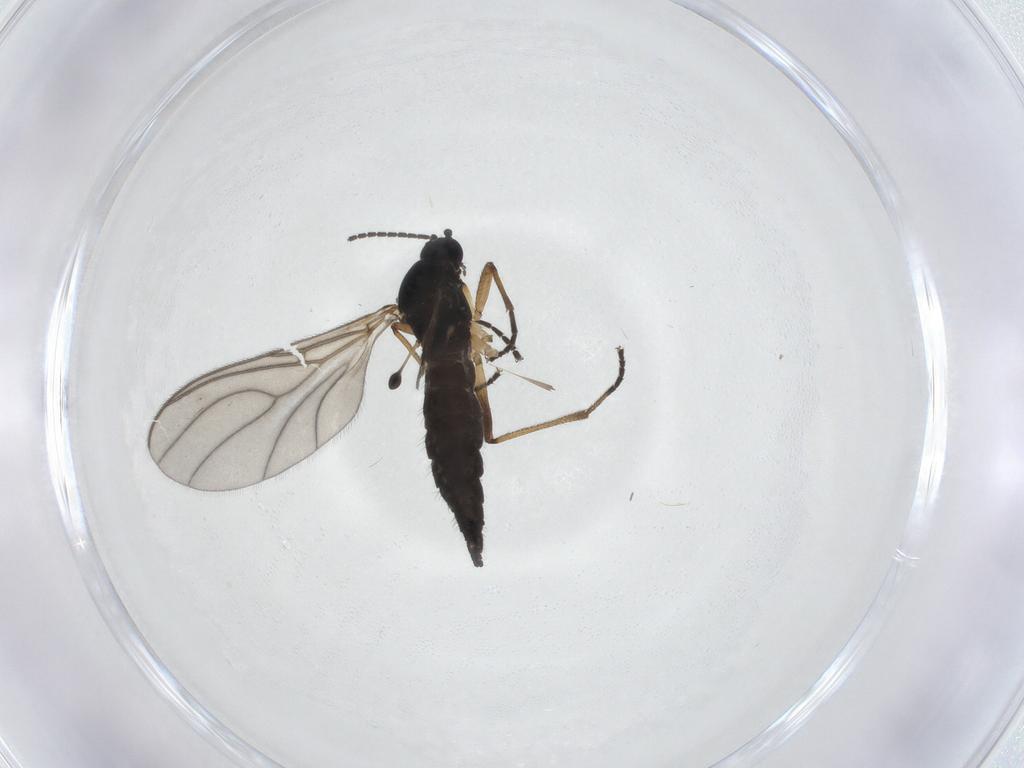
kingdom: Animalia
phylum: Arthropoda
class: Insecta
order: Diptera
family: Sciaridae
